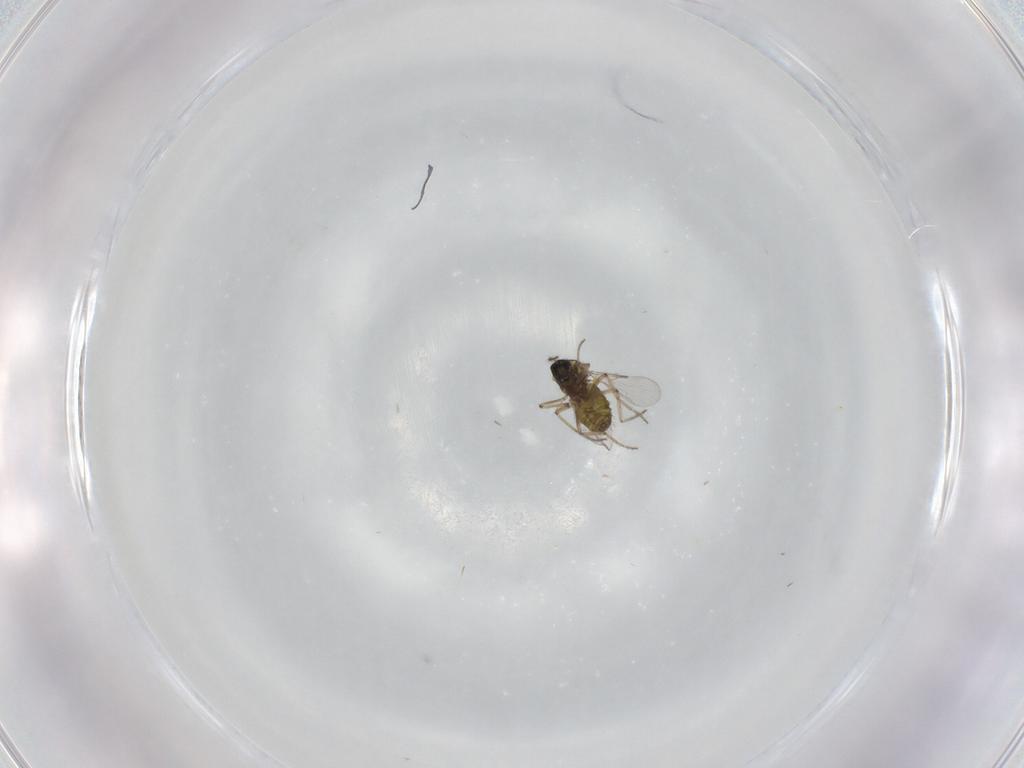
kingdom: Animalia
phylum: Arthropoda
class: Insecta
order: Diptera
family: Ceratopogonidae
